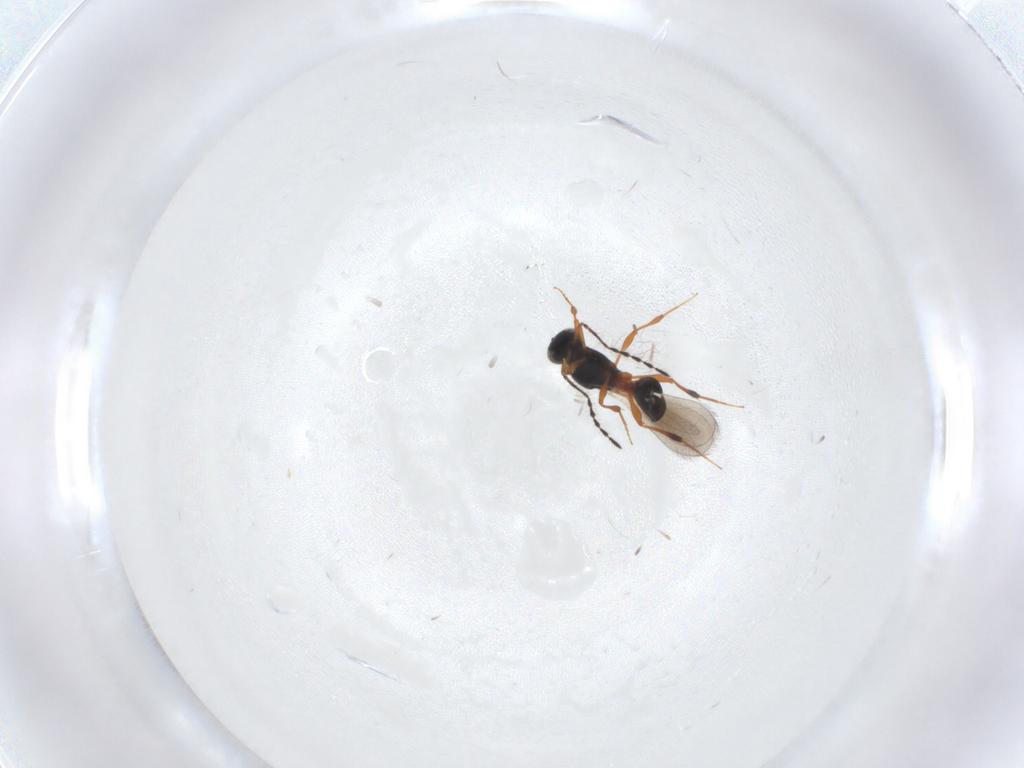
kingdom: Animalia
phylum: Arthropoda
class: Insecta
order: Hymenoptera
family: Platygastridae
